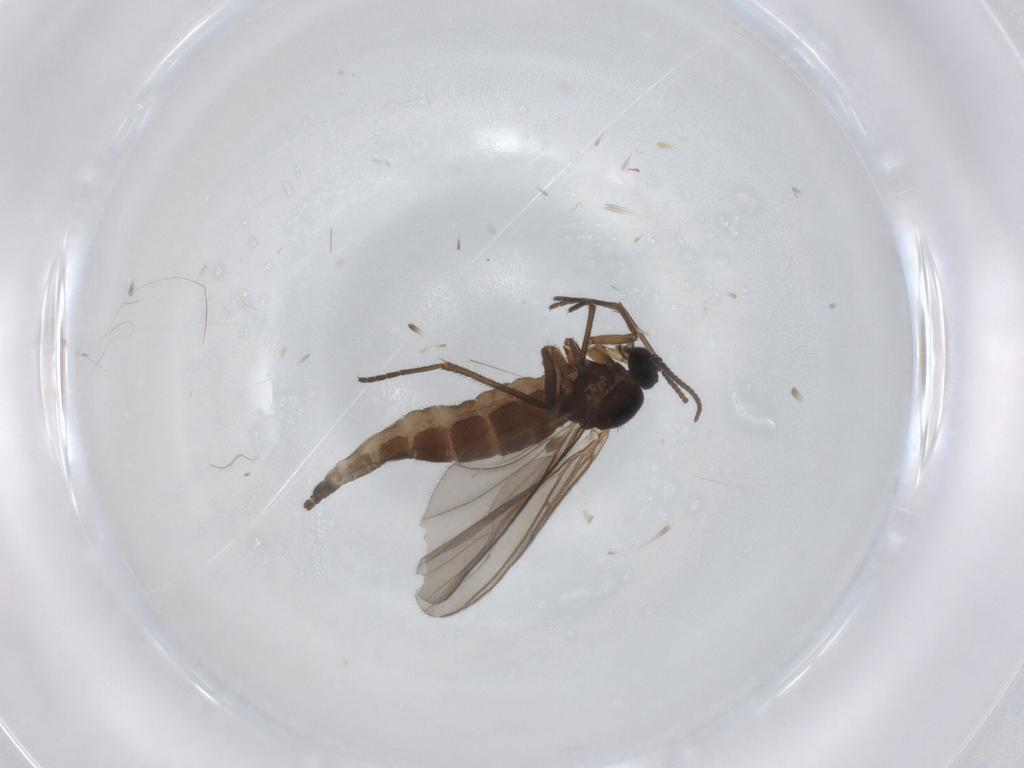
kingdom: Animalia
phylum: Arthropoda
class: Insecta
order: Diptera
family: Sciaridae
